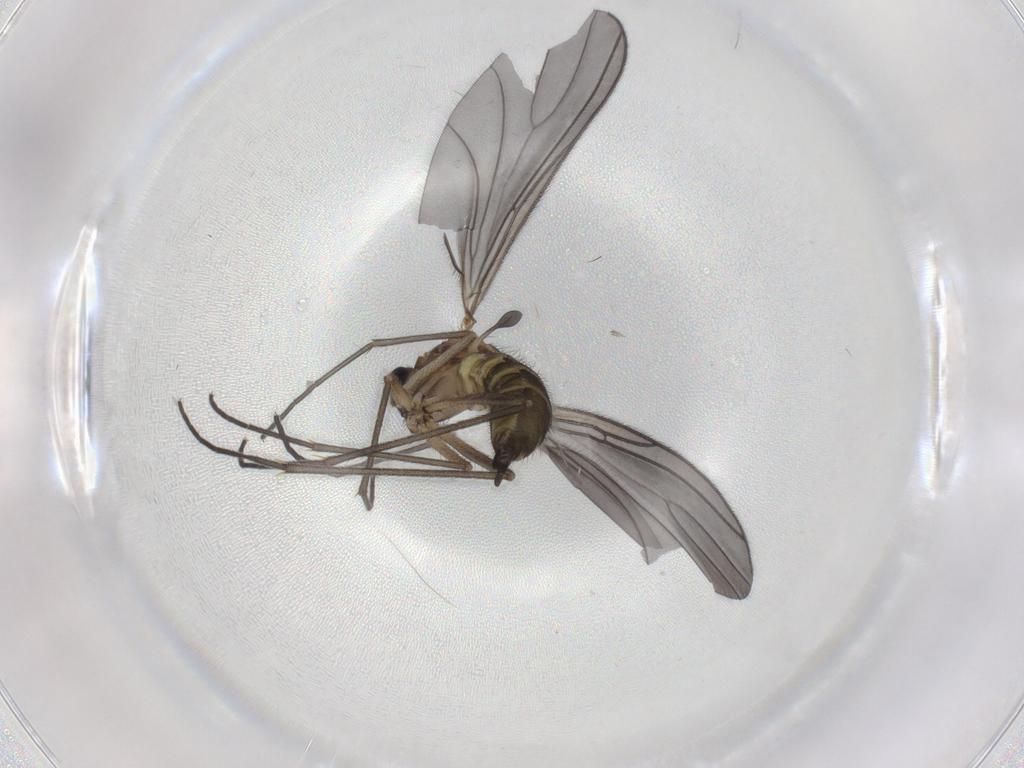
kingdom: Animalia
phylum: Arthropoda
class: Insecta
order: Diptera
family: Sciaridae
